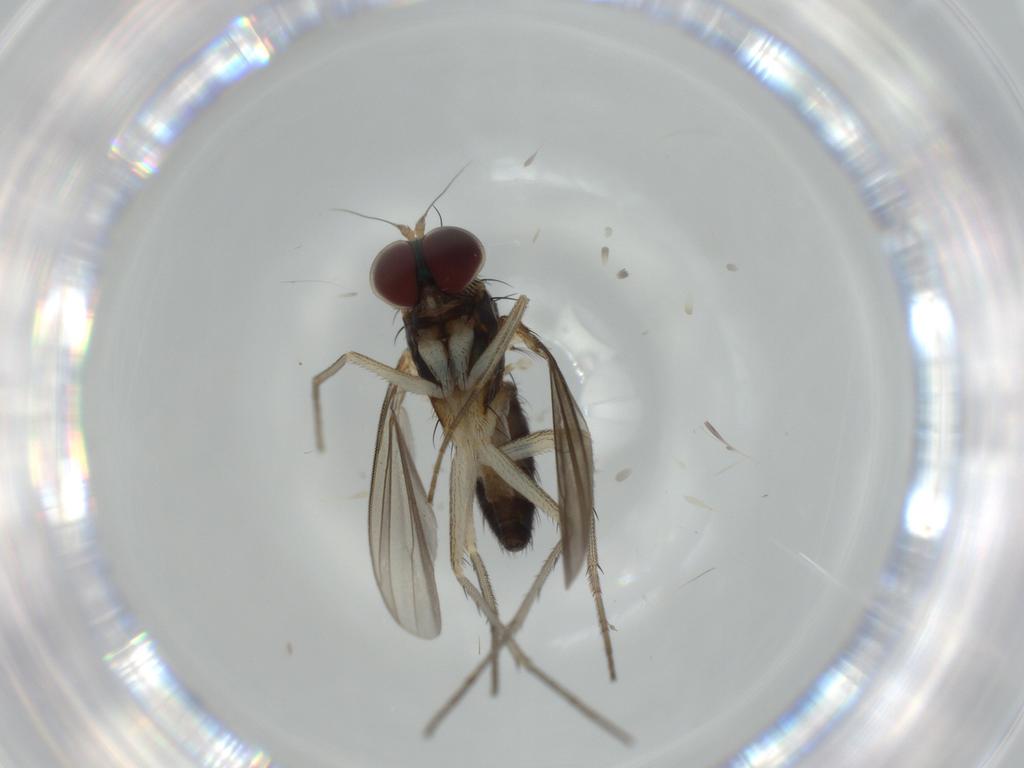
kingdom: Animalia
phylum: Arthropoda
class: Insecta
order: Diptera
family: Dolichopodidae
